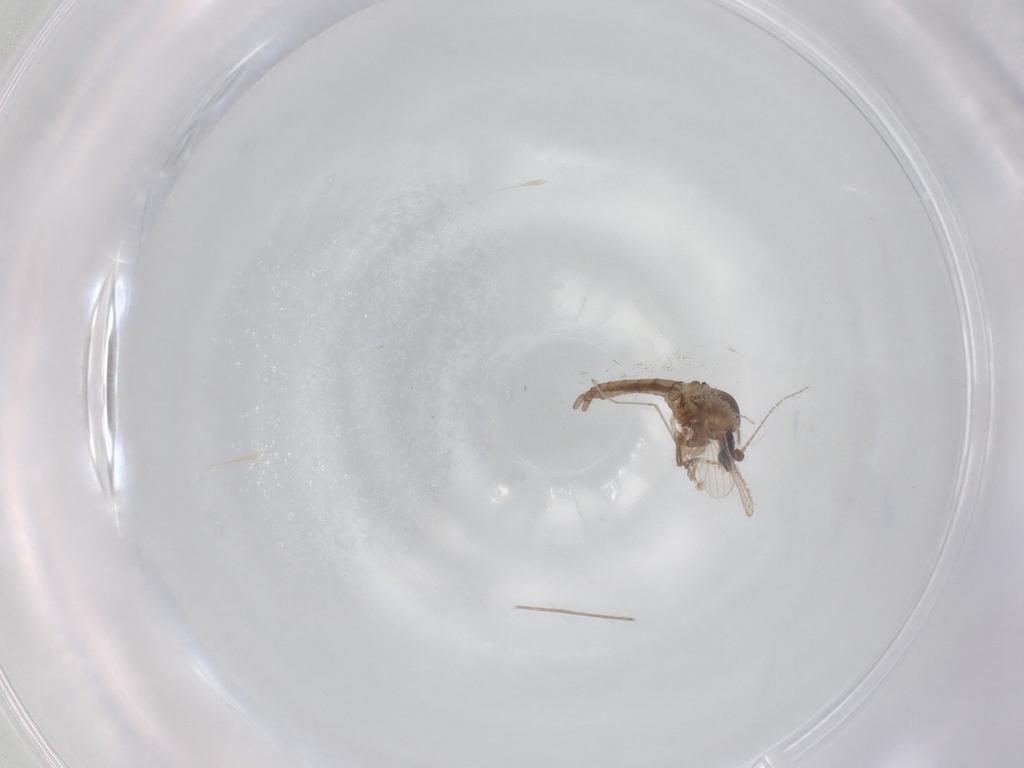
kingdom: Animalia
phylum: Arthropoda
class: Insecta
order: Diptera
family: Corethrellidae
